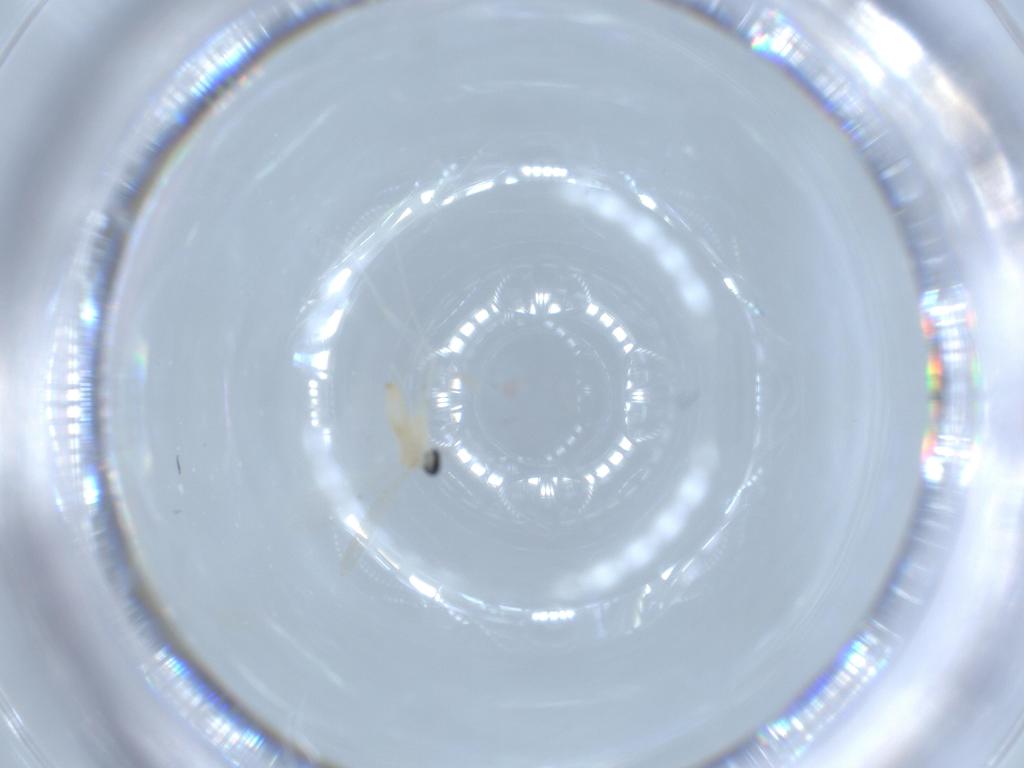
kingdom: Animalia
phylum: Arthropoda
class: Insecta
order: Diptera
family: Cecidomyiidae
